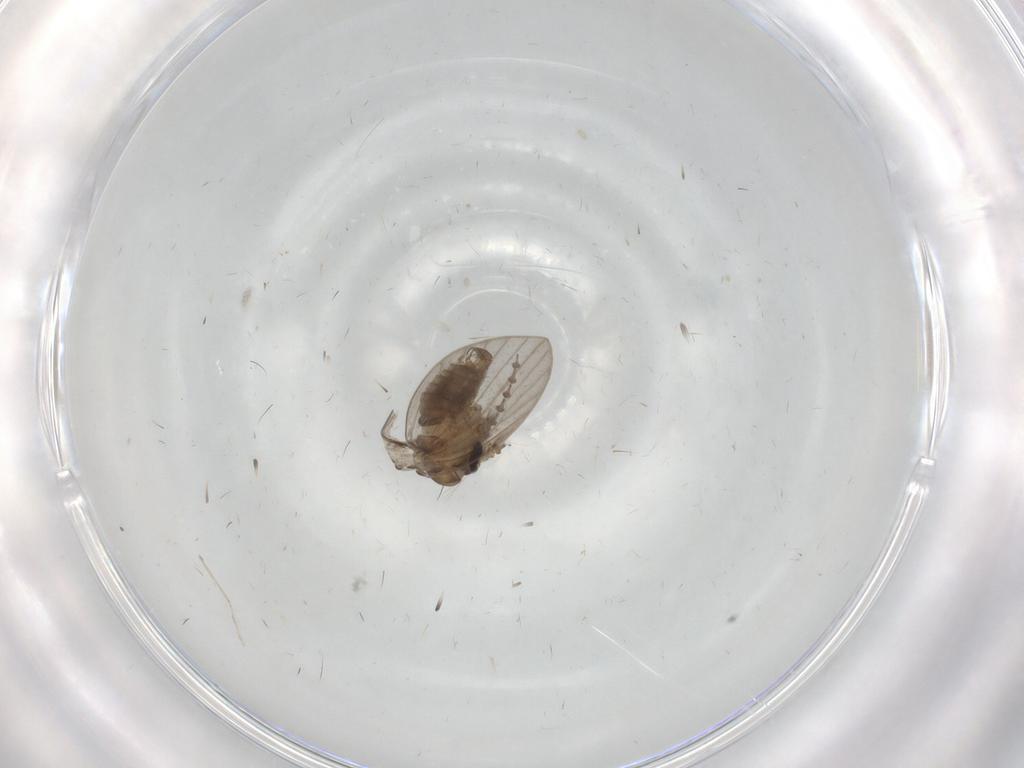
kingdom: Animalia
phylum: Arthropoda
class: Insecta
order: Diptera
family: Psychodidae
